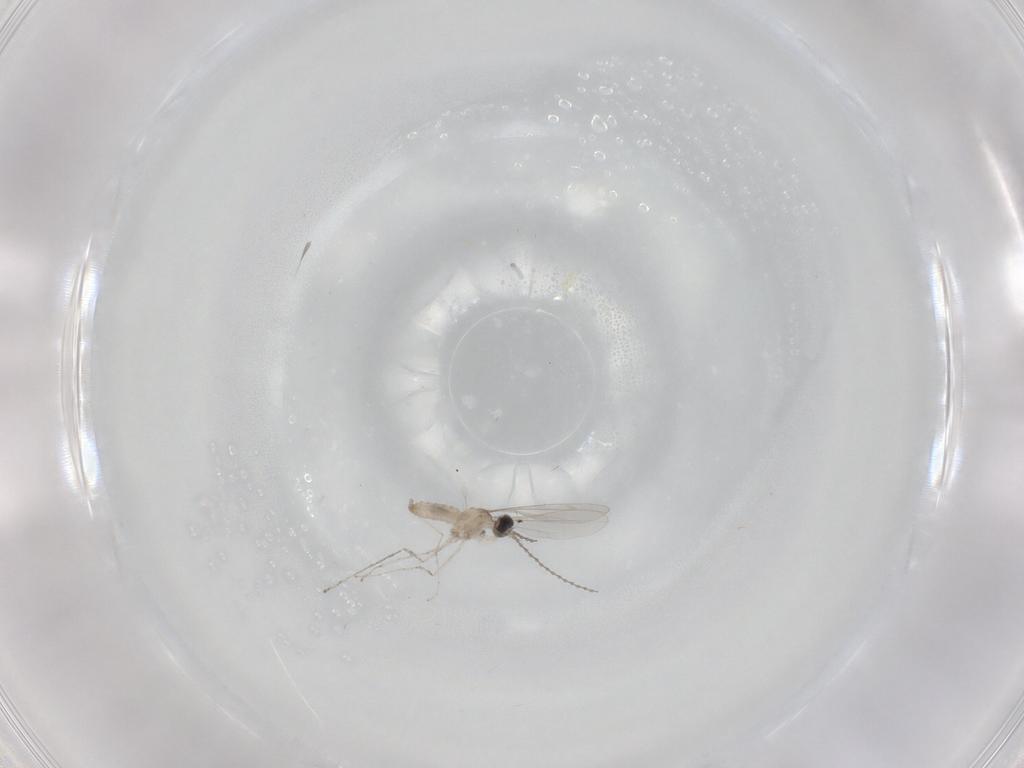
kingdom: Animalia
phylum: Arthropoda
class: Insecta
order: Diptera
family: Cecidomyiidae
